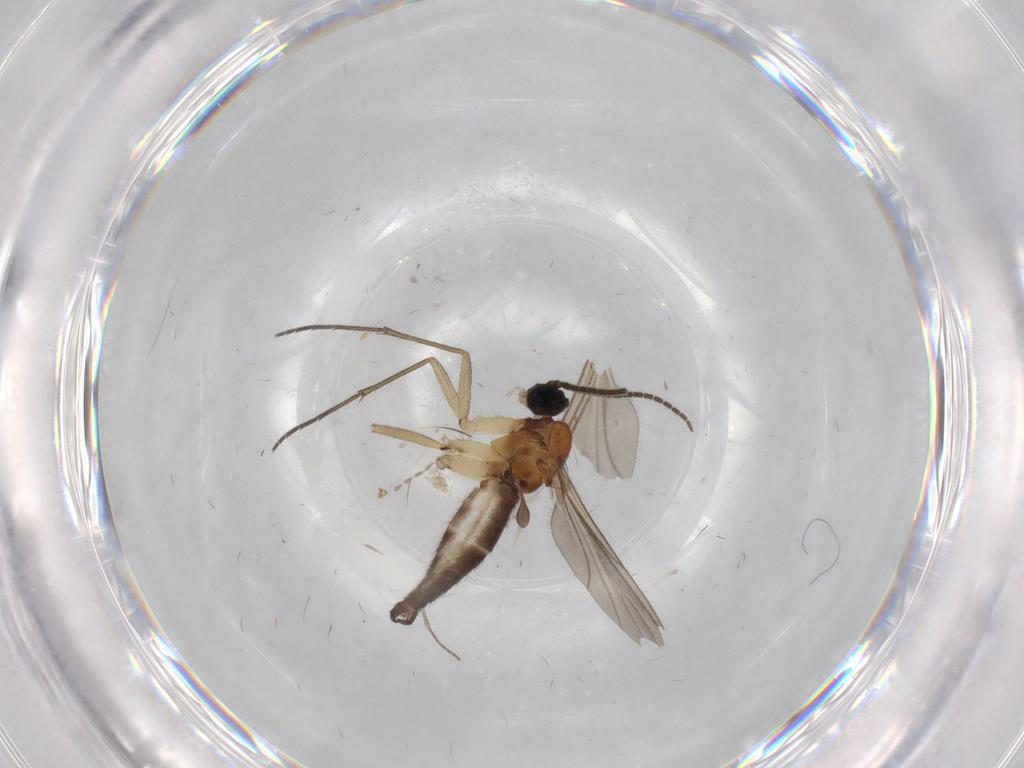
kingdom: Animalia
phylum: Arthropoda
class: Insecta
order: Diptera
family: Sciaridae
